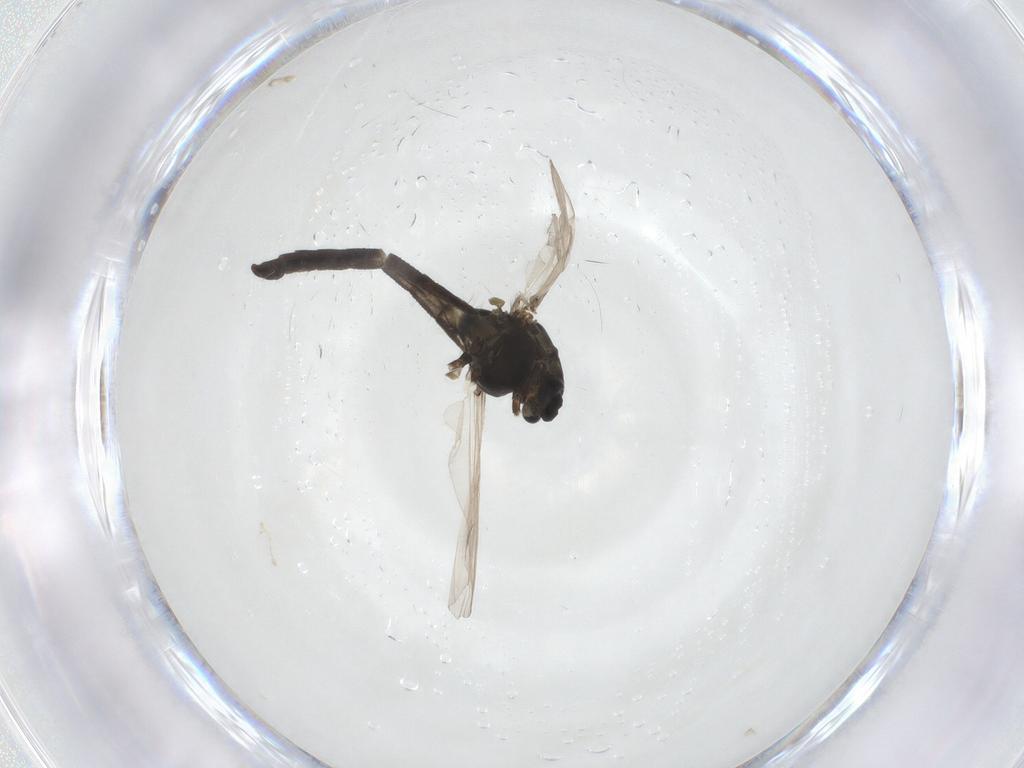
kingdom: Animalia
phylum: Arthropoda
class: Insecta
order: Diptera
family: Chironomidae
